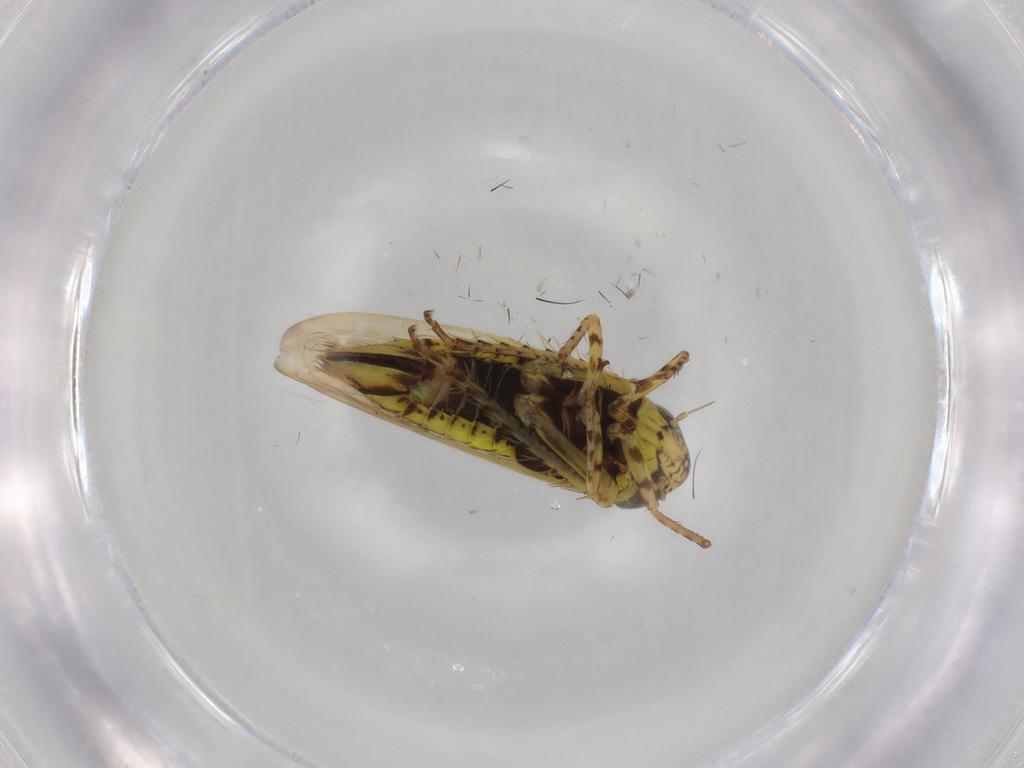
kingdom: Animalia
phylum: Arthropoda
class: Insecta
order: Hemiptera
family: Cicadellidae
